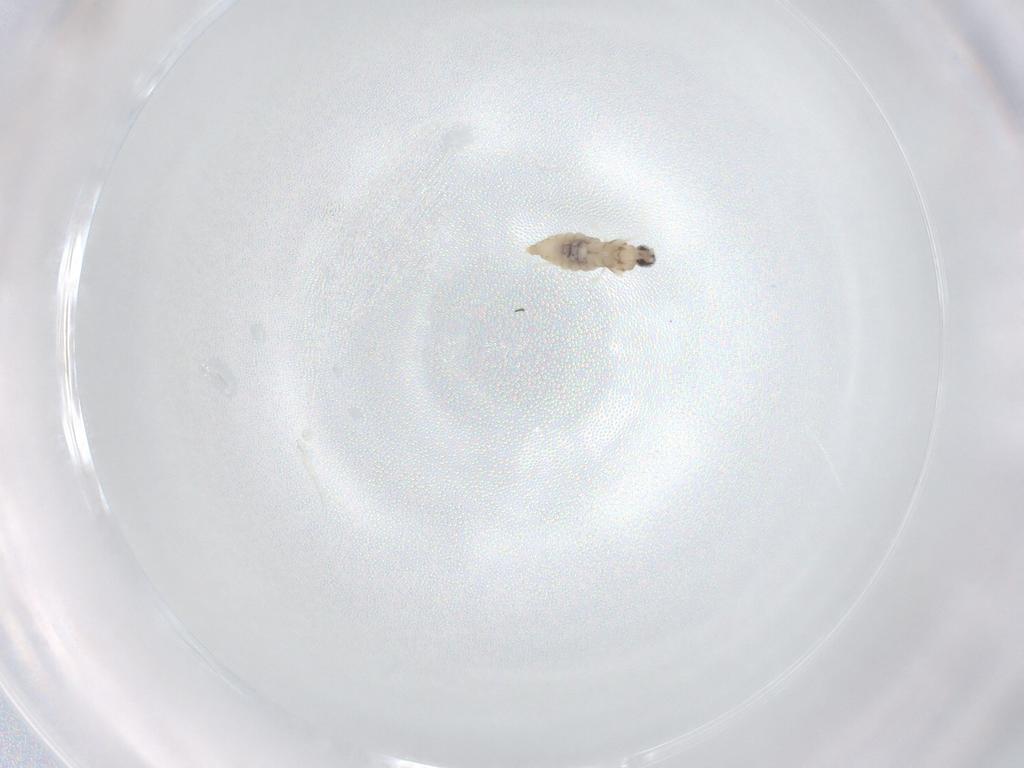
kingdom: Animalia
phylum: Arthropoda
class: Insecta
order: Diptera
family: Cecidomyiidae
